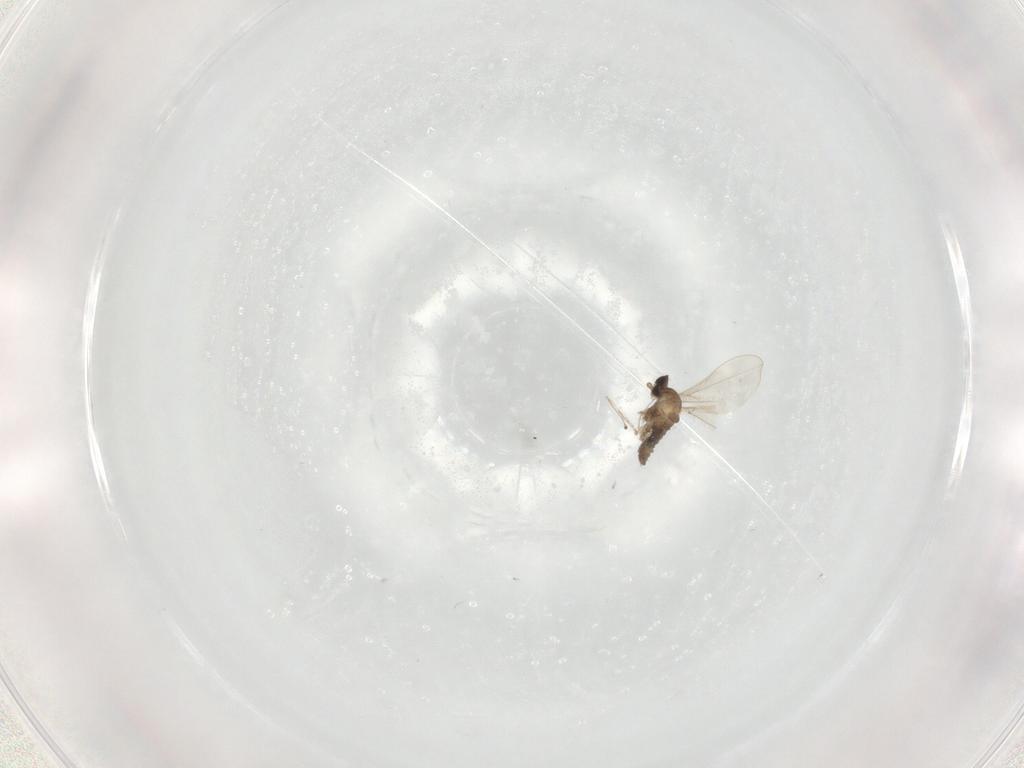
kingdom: Animalia
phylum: Arthropoda
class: Insecta
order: Diptera
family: Cecidomyiidae
